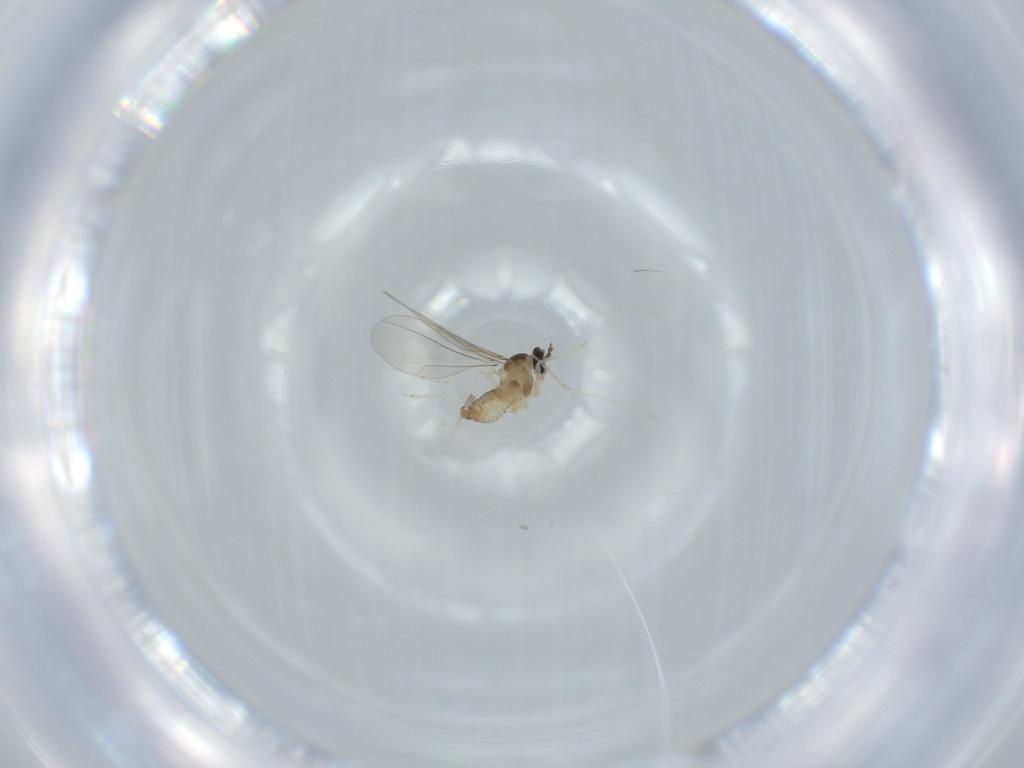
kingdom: Animalia
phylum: Arthropoda
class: Insecta
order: Diptera
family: Cecidomyiidae
